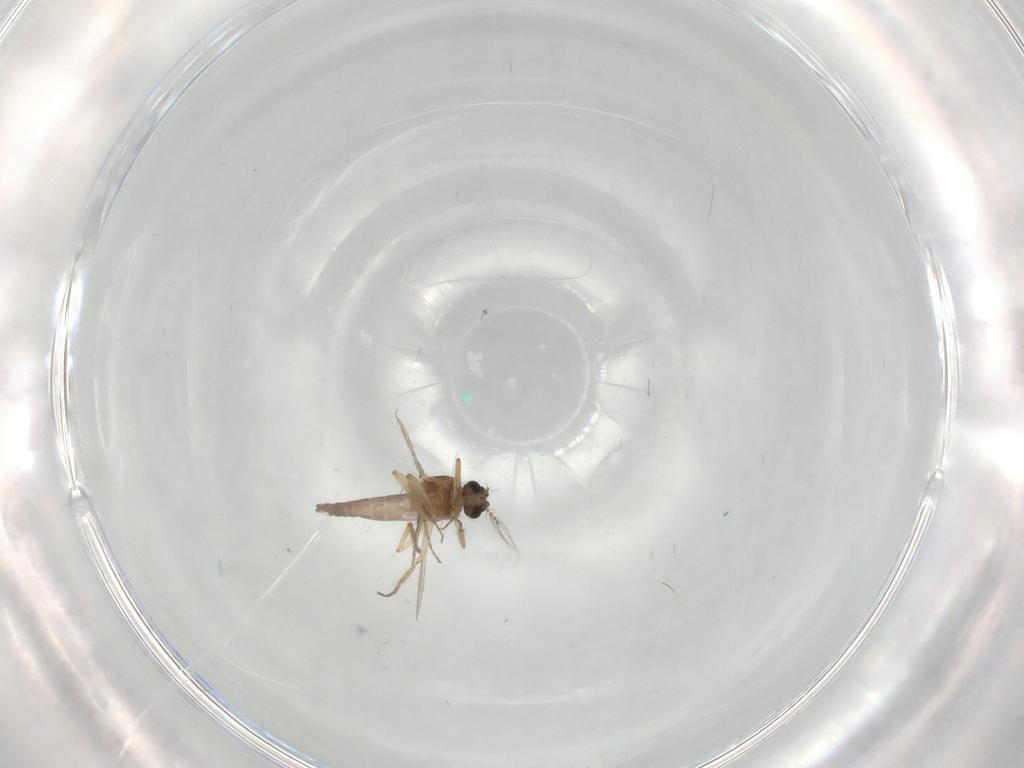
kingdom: Animalia
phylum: Arthropoda
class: Insecta
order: Diptera
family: Ceratopogonidae
